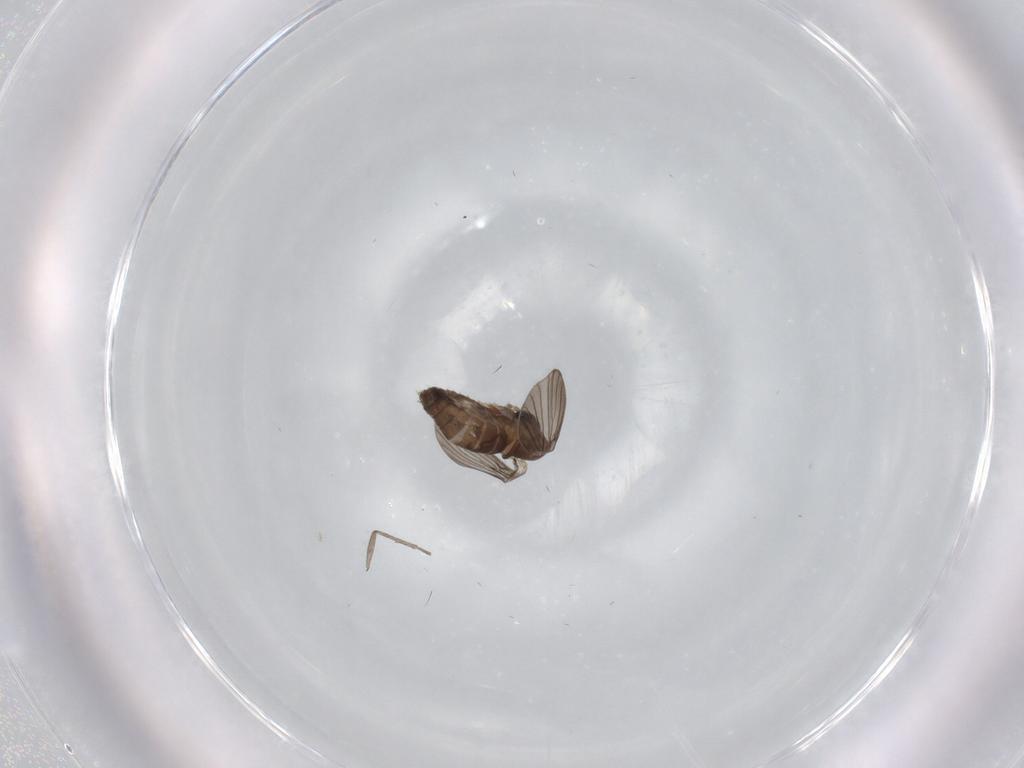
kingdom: Animalia
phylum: Arthropoda
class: Insecta
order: Diptera
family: Sciaridae
